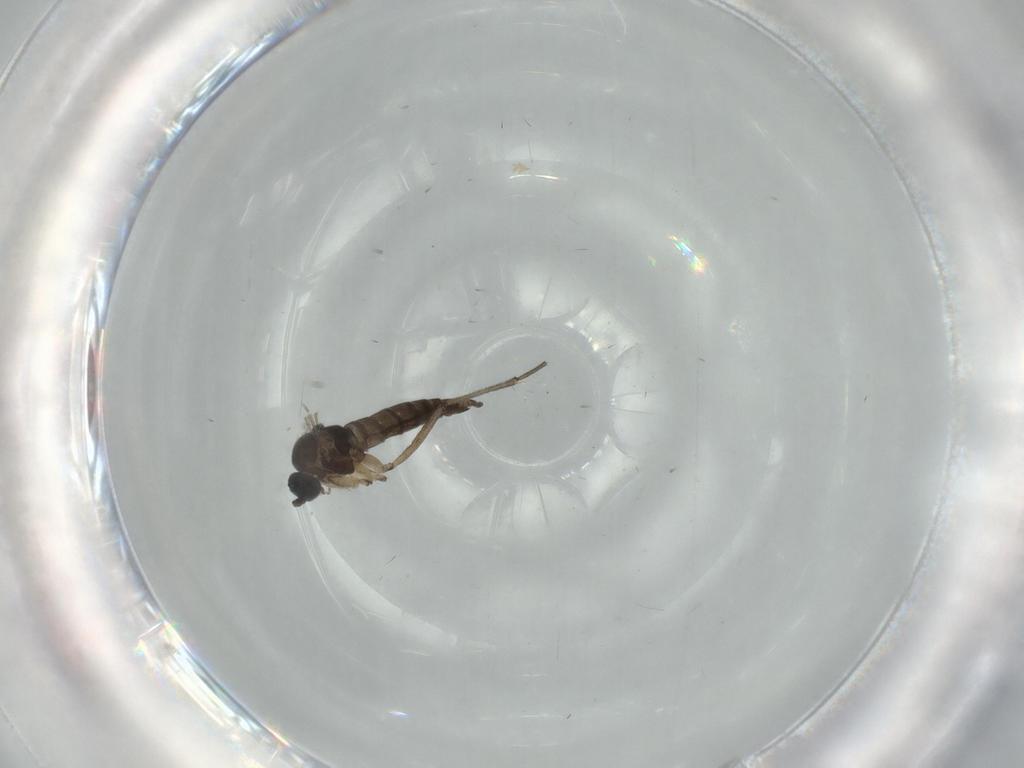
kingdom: Animalia
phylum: Arthropoda
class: Insecta
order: Diptera
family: Sciaridae
